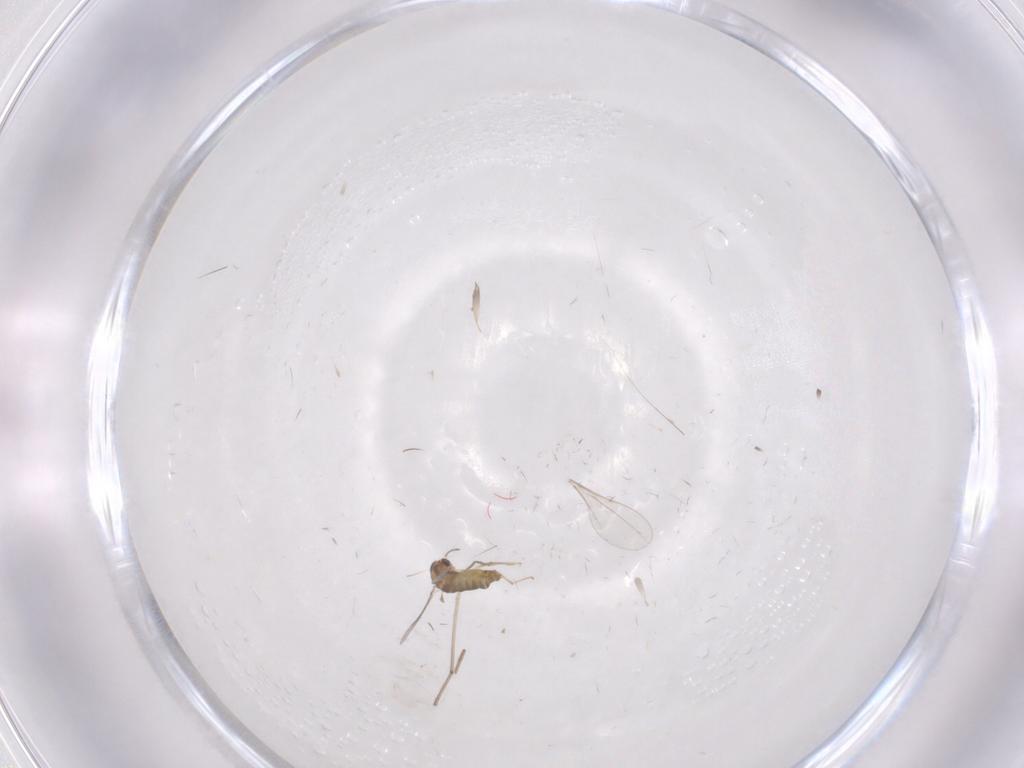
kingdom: Animalia
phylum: Arthropoda
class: Insecta
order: Diptera
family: Chironomidae
